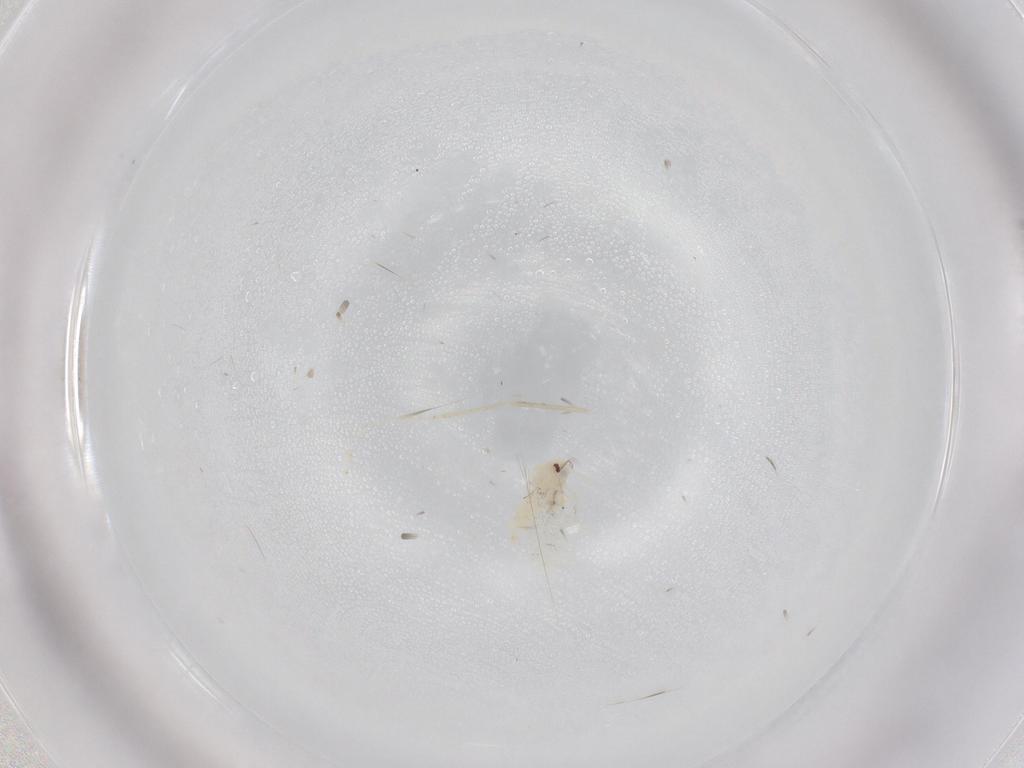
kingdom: Animalia
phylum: Arthropoda
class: Insecta
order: Hemiptera
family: Aleyrodidae
